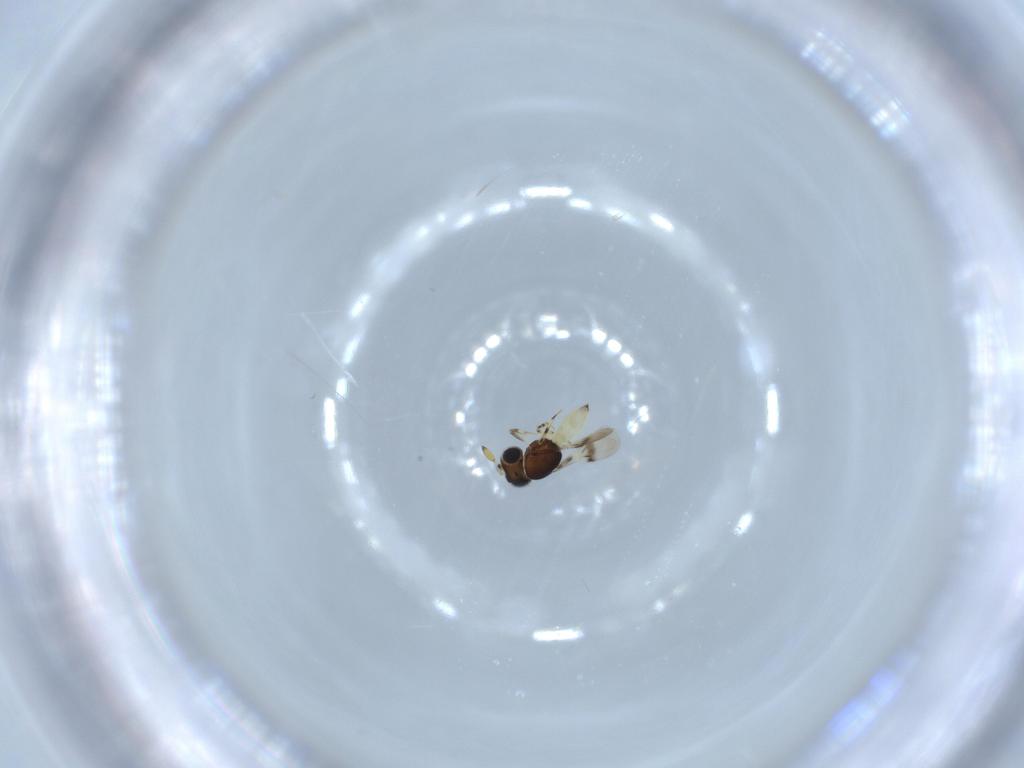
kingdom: Animalia
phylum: Arthropoda
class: Insecta
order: Hymenoptera
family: Scelionidae
